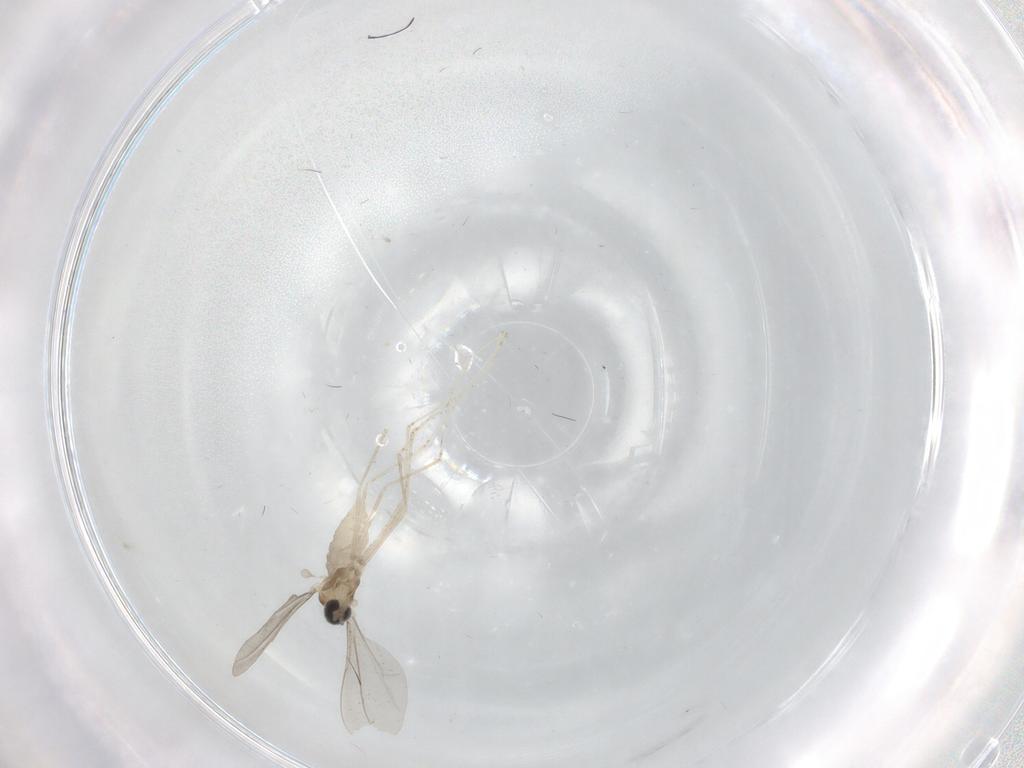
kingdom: Animalia
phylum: Arthropoda
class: Insecta
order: Diptera
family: Cecidomyiidae
